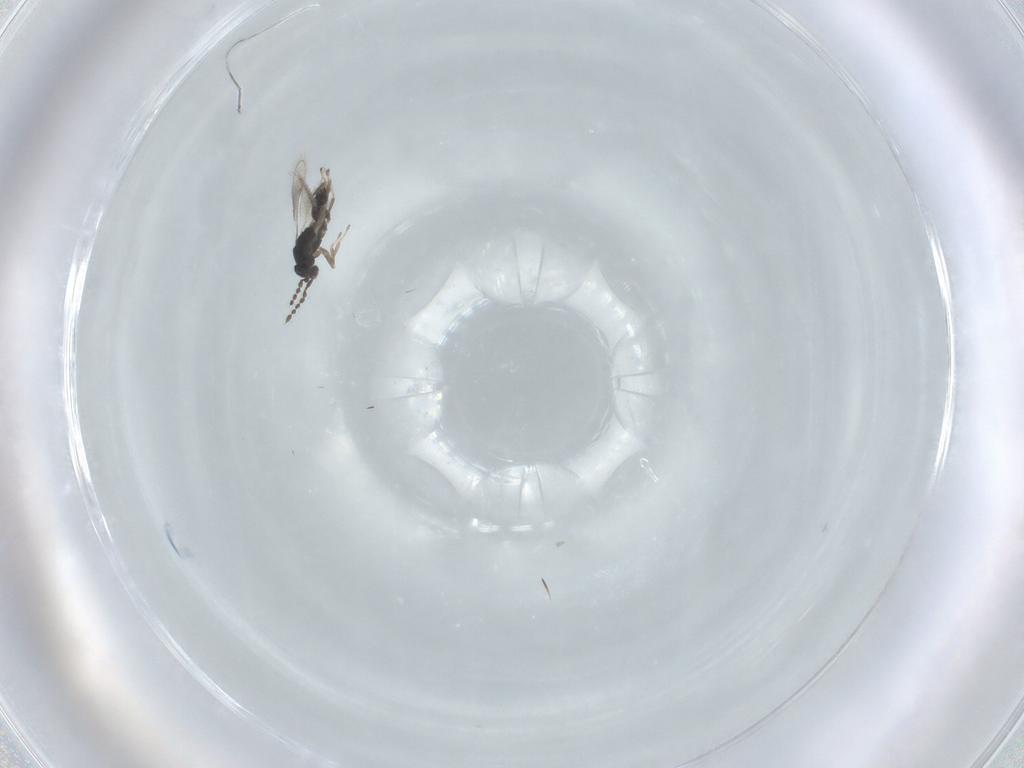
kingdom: Animalia
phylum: Arthropoda
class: Insecta
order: Hymenoptera
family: Eulophidae
